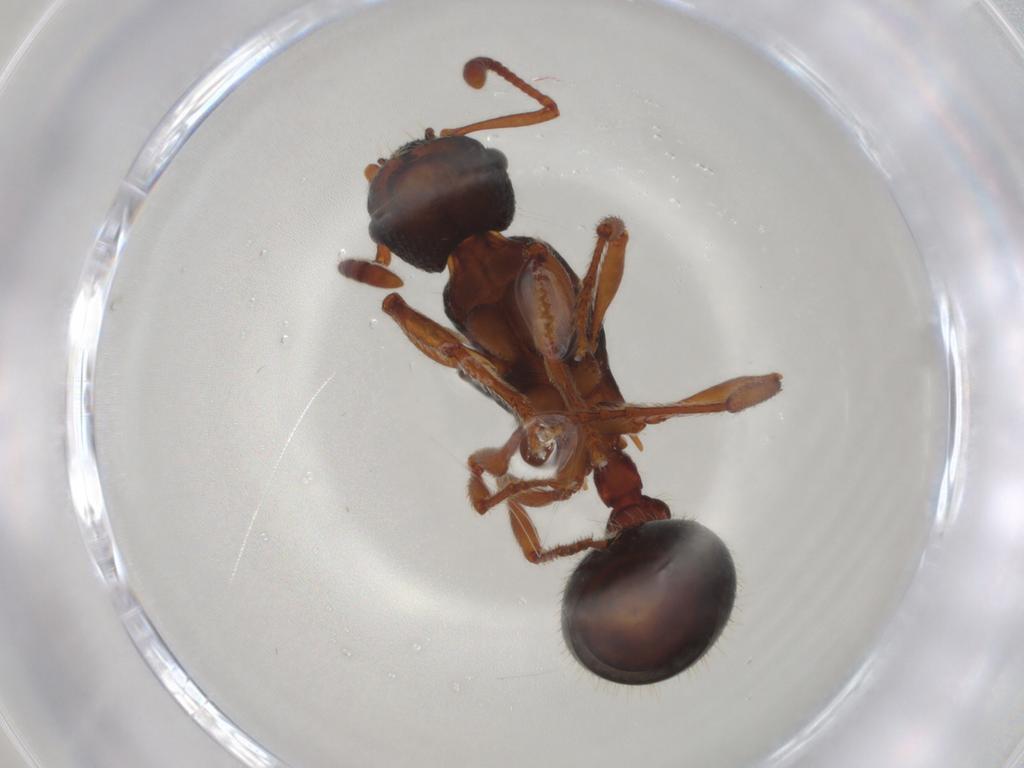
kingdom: Animalia
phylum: Arthropoda
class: Insecta
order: Hymenoptera
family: Formicidae
